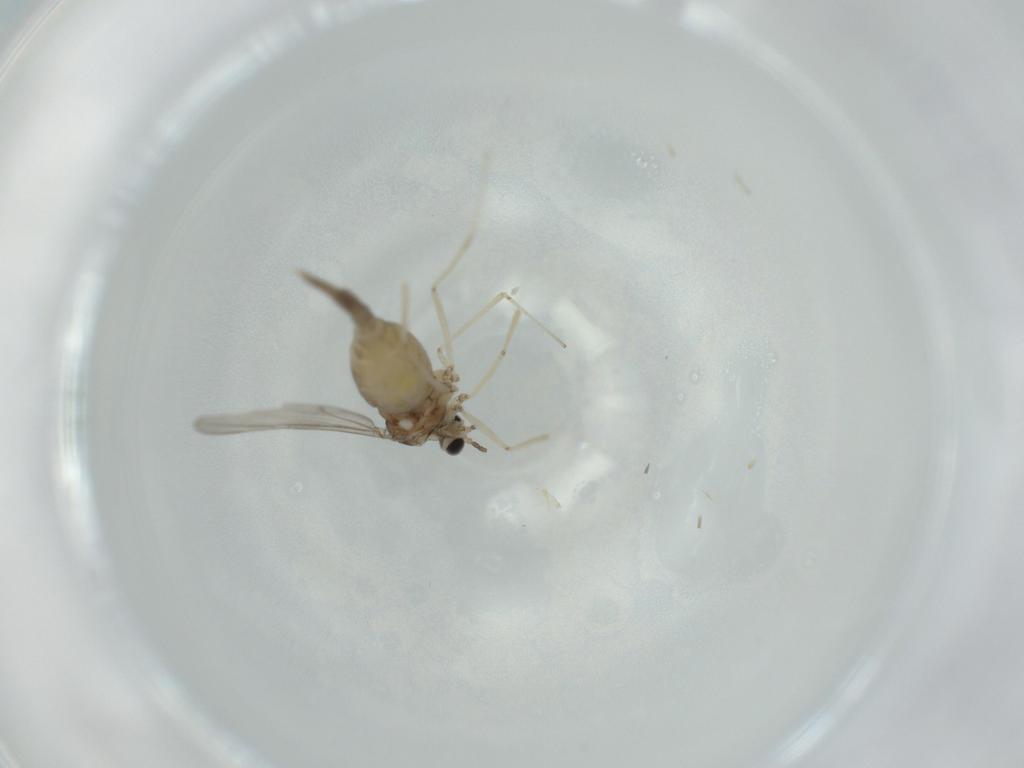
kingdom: Animalia
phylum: Arthropoda
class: Insecta
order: Diptera
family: Cecidomyiidae
